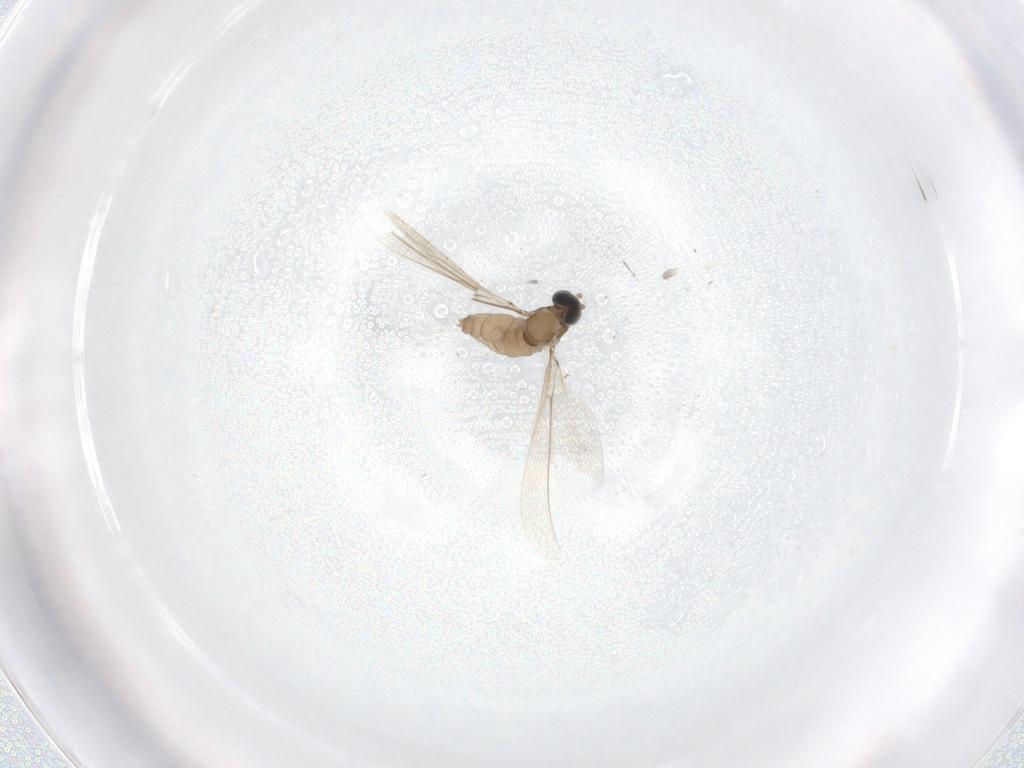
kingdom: Animalia
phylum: Arthropoda
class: Insecta
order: Diptera
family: Cecidomyiidae
